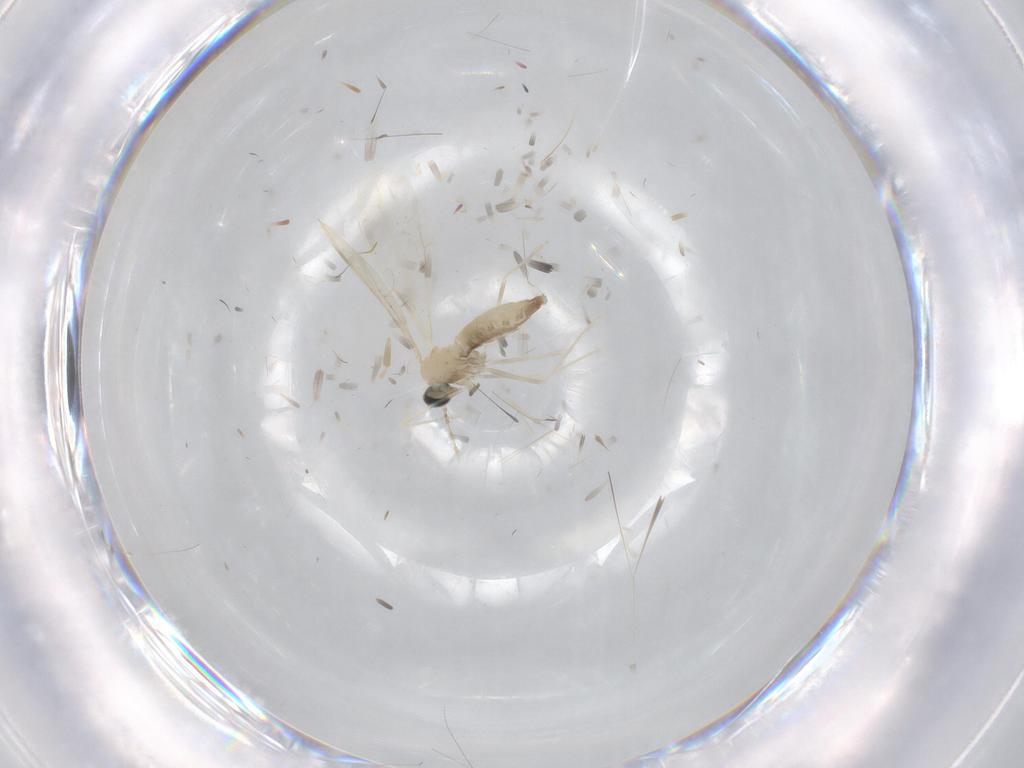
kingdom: Animalia
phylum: Arthropoda
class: Insecta
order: Diptera
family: Cecidomyiidae
